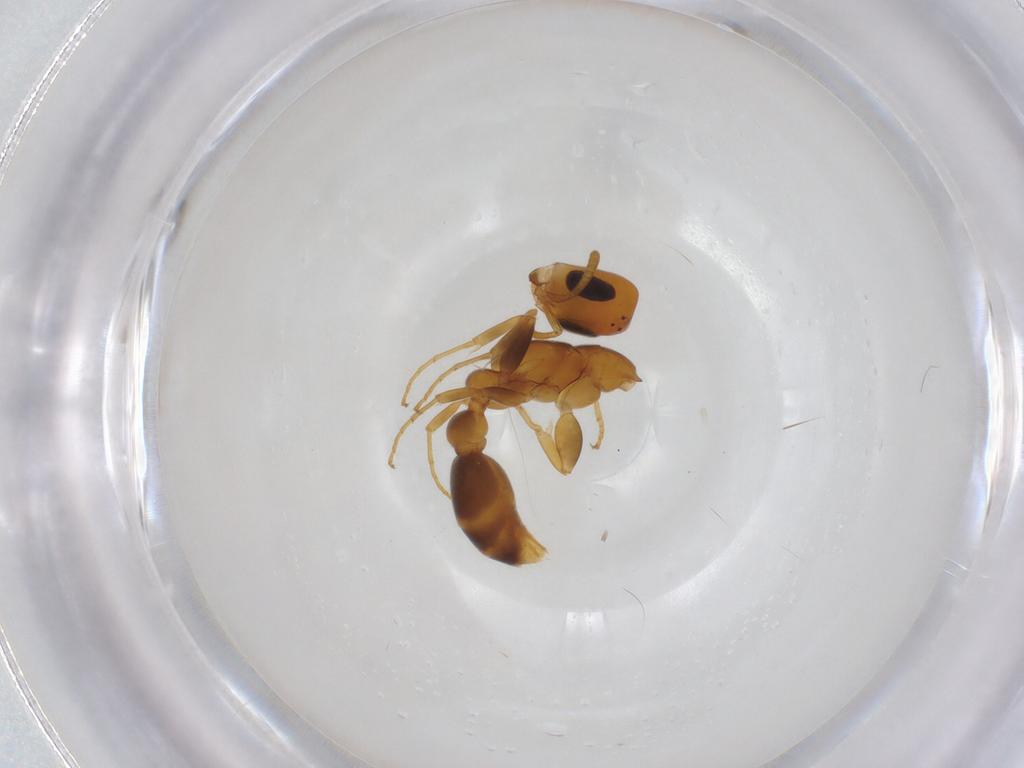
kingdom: Animalia
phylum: Arthropoda
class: Insecta
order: Hymenoptera
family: Formicidae
